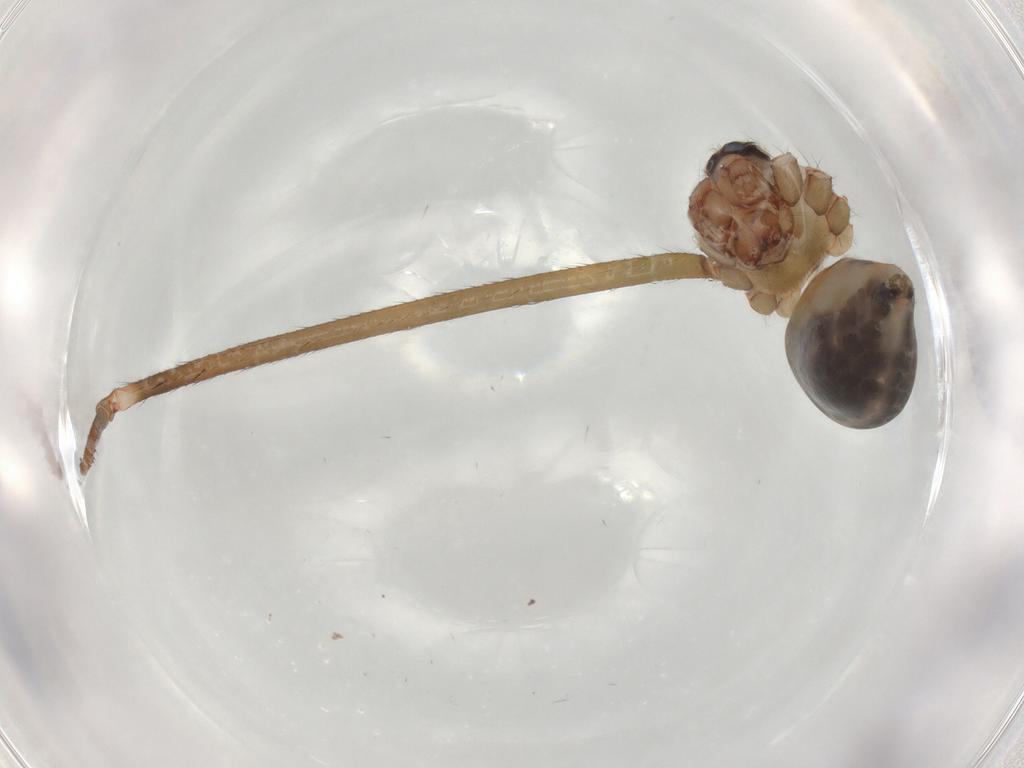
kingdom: Animalia
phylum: Arthropoda
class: Arachnida
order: Araneae
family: Pholcidae
